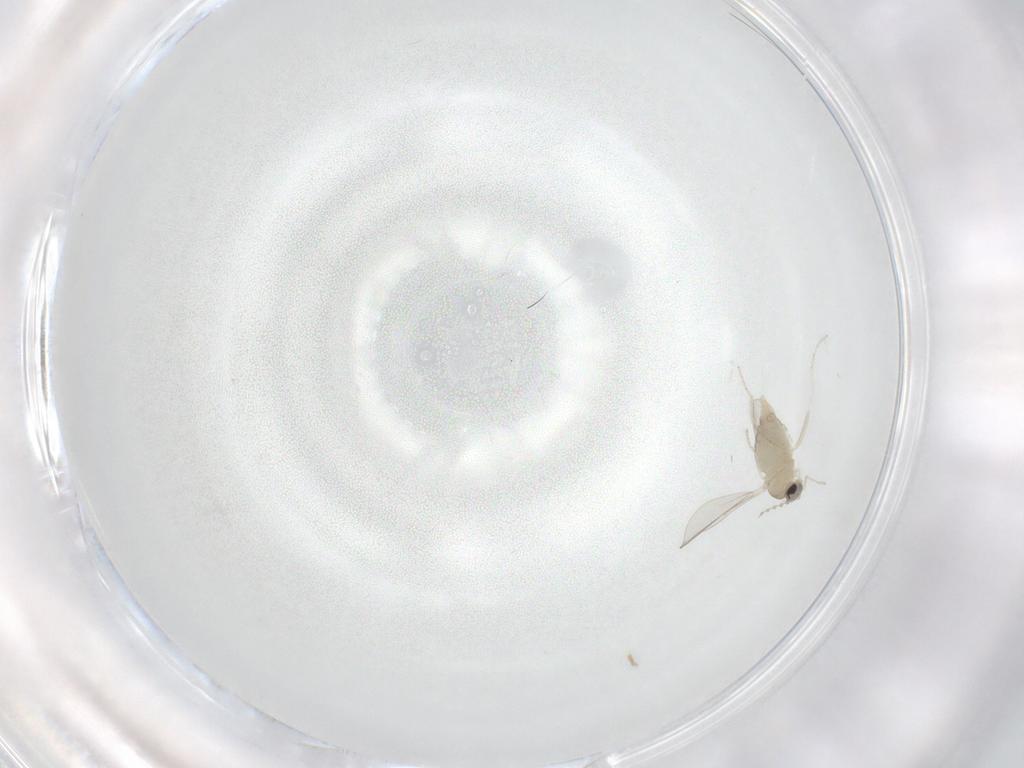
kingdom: Animalia
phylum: Arthropoda
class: Insecta
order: Diptera
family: Cecidomyiidae
